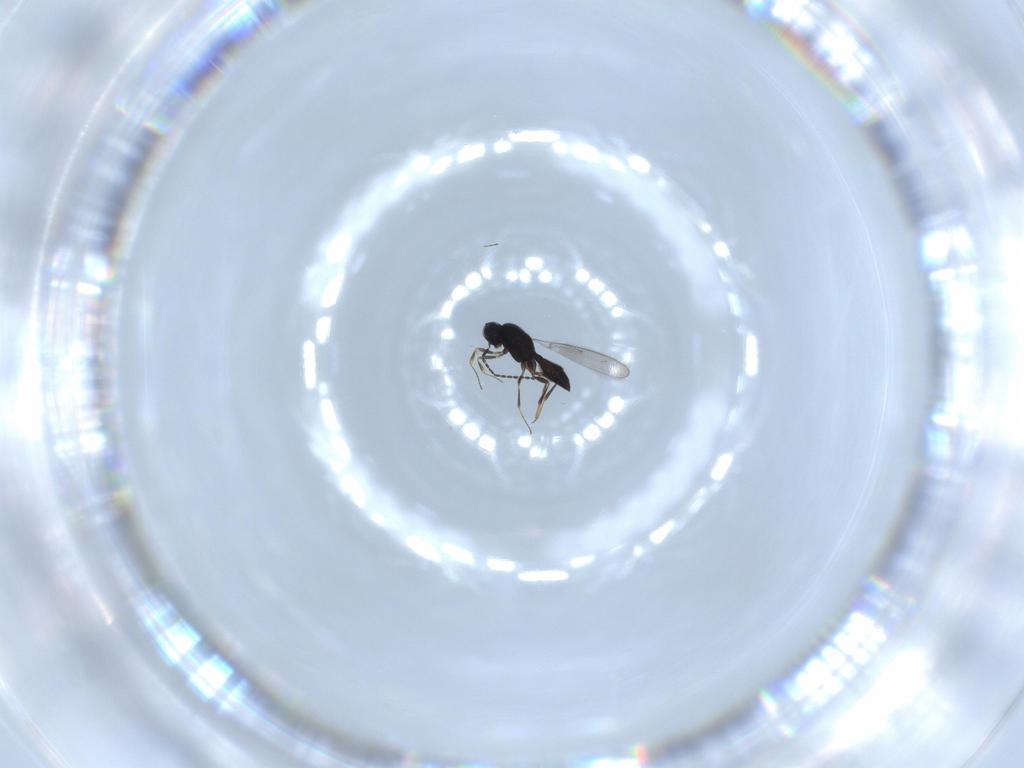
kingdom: Animalia
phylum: Arthropoda
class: Insecta
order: Hymenoptera
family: Scelionidae
